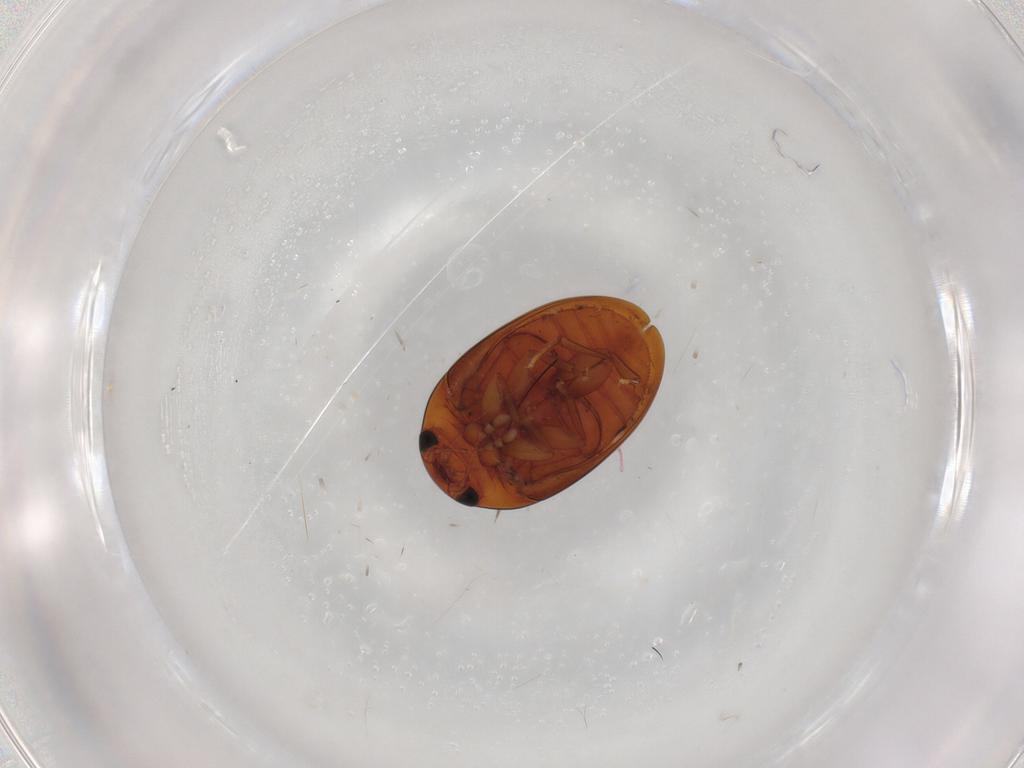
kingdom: Animalia
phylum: Arthropoda
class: Insecta
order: Coleoptera
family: Phalacridae
